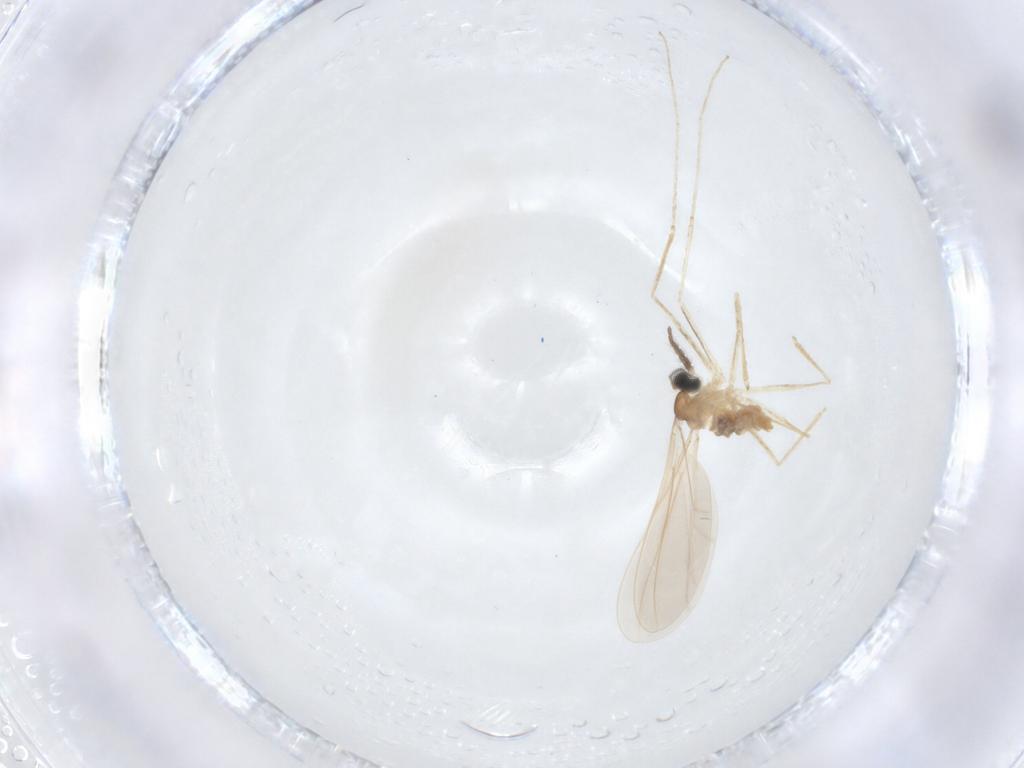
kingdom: Animalia
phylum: Arthropoda
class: Insecta
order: Diptera
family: Cecidomyiidae
